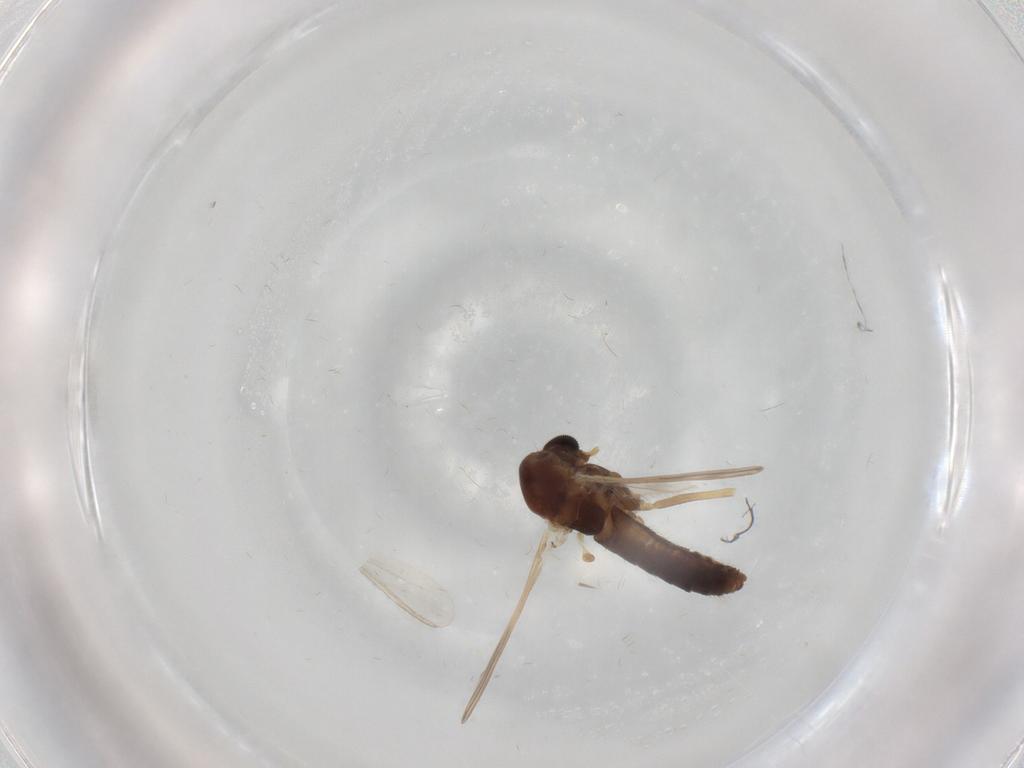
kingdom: Animalia
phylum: Arthropoda
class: Insecta
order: Diptera
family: Chironomidae
